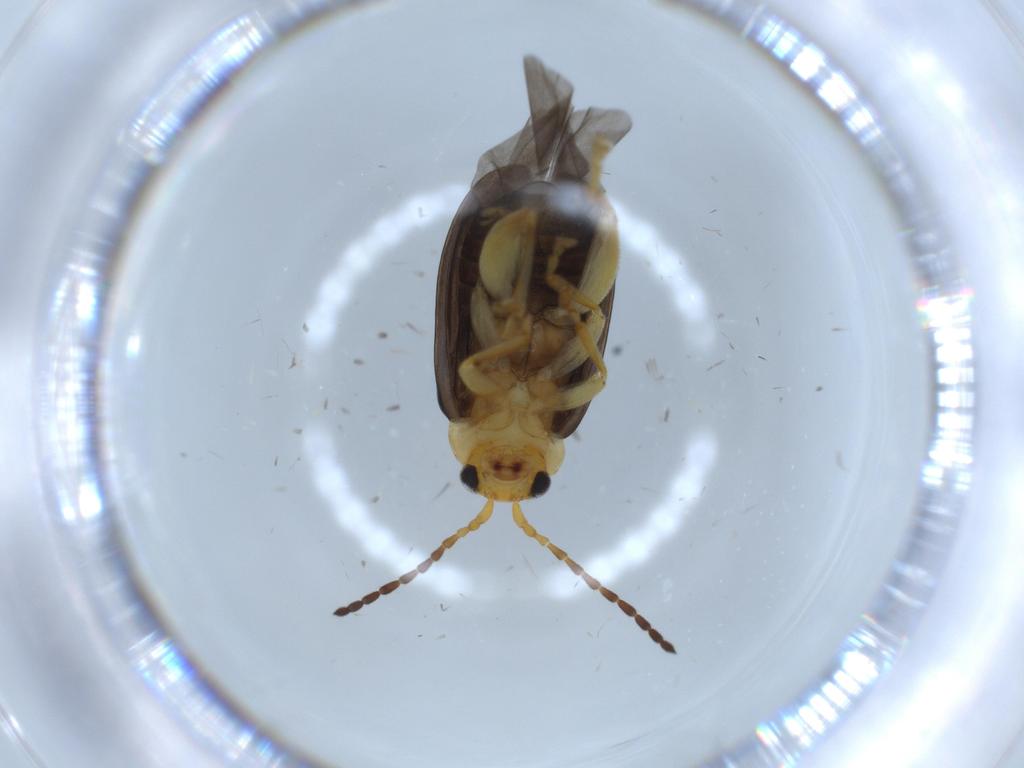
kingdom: Animalia
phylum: Arthropoda
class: Insecta
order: Coleoptera
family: Chrysomelidae
